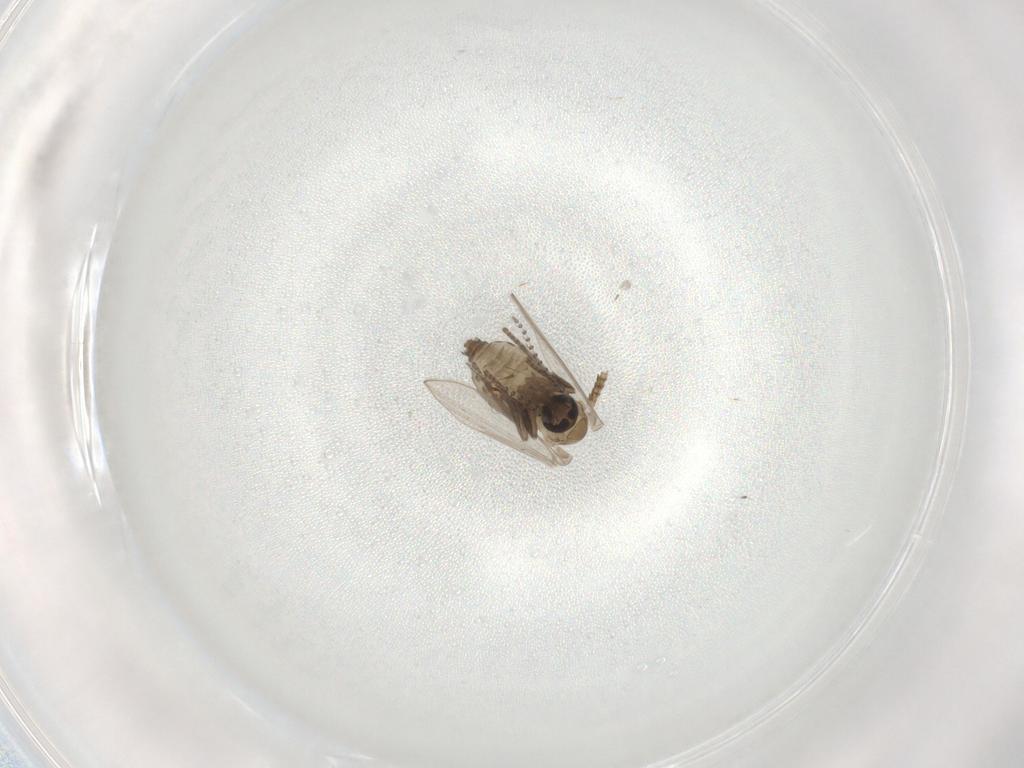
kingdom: Animalia
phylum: Arthropoda
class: Insecta
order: Diptera
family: Psychodidae
